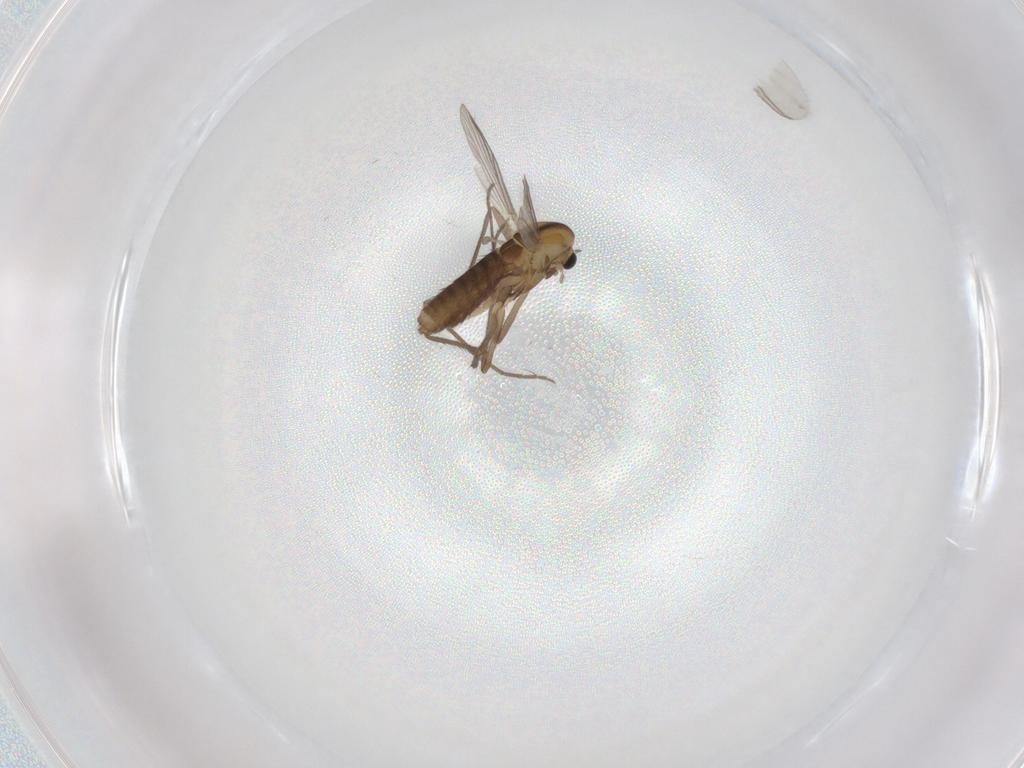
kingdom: Animalia
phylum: Arthropoda
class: Insecta
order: Diptera
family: Chironomidae
